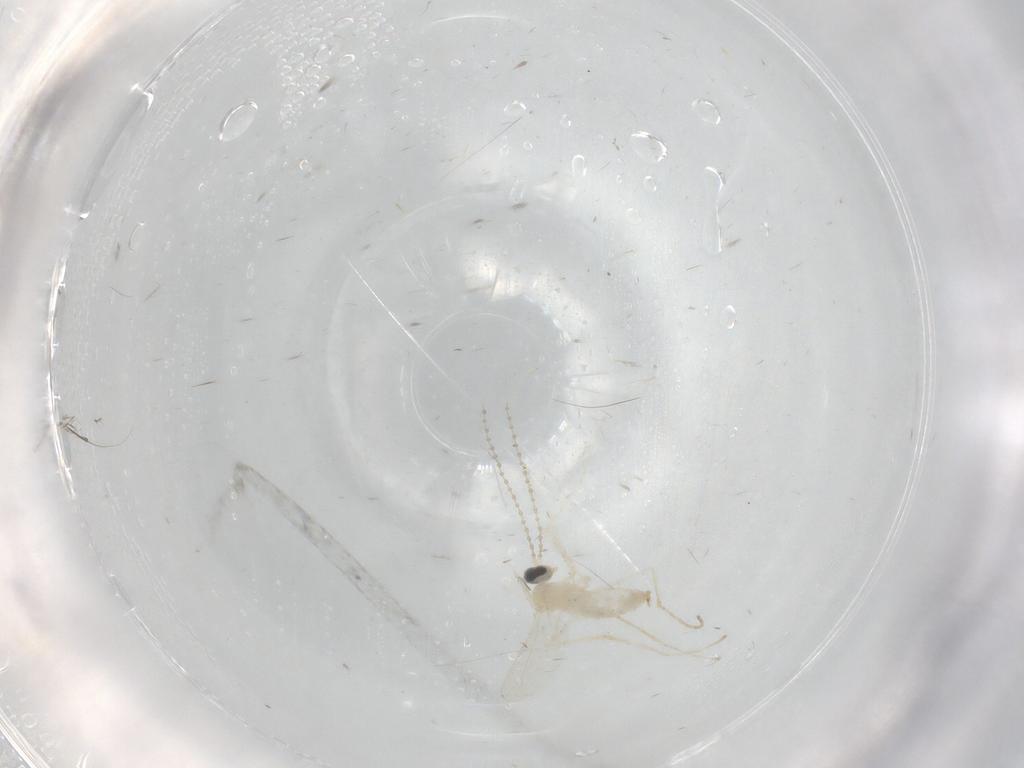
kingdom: Animalia
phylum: Arthropoda
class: Insecta
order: Diptera
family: Cecidomyiidae
